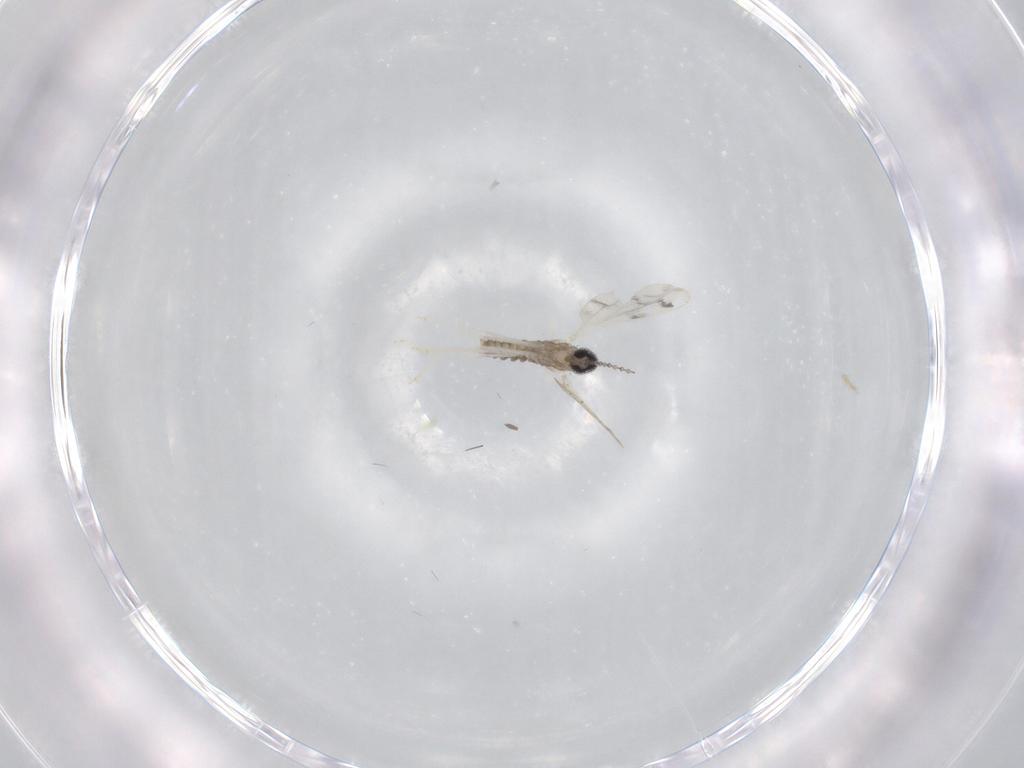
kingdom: Animalia
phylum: Arthropoda
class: Insecta
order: Diptera
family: Cecidomyiidae
